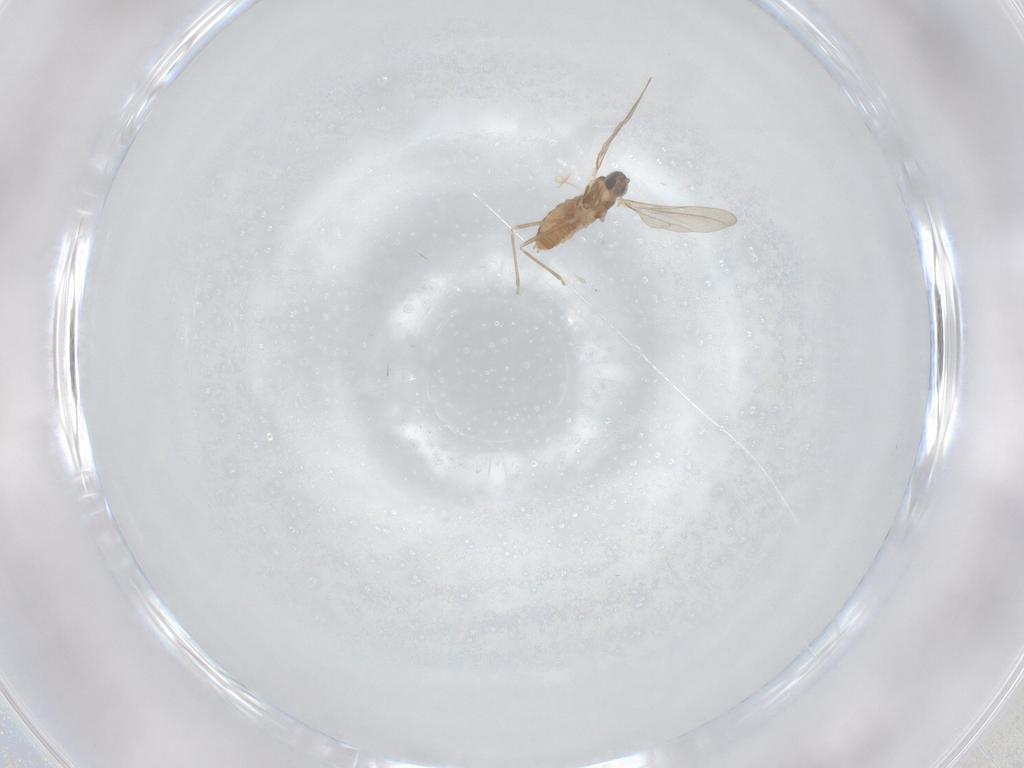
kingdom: Animalia
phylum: Arthropoda
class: Insecta
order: Diptera
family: Cecidomyiidae
